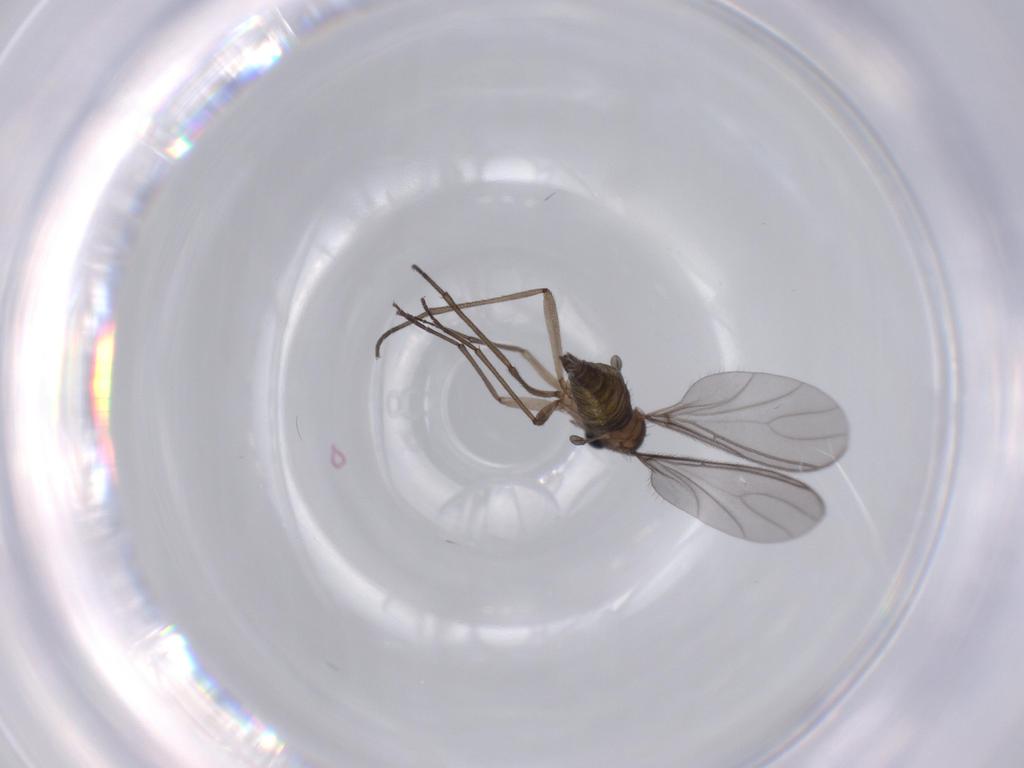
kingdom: Animalia
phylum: Arthropoda
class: Insecta
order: Diptera
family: Sciaridae
